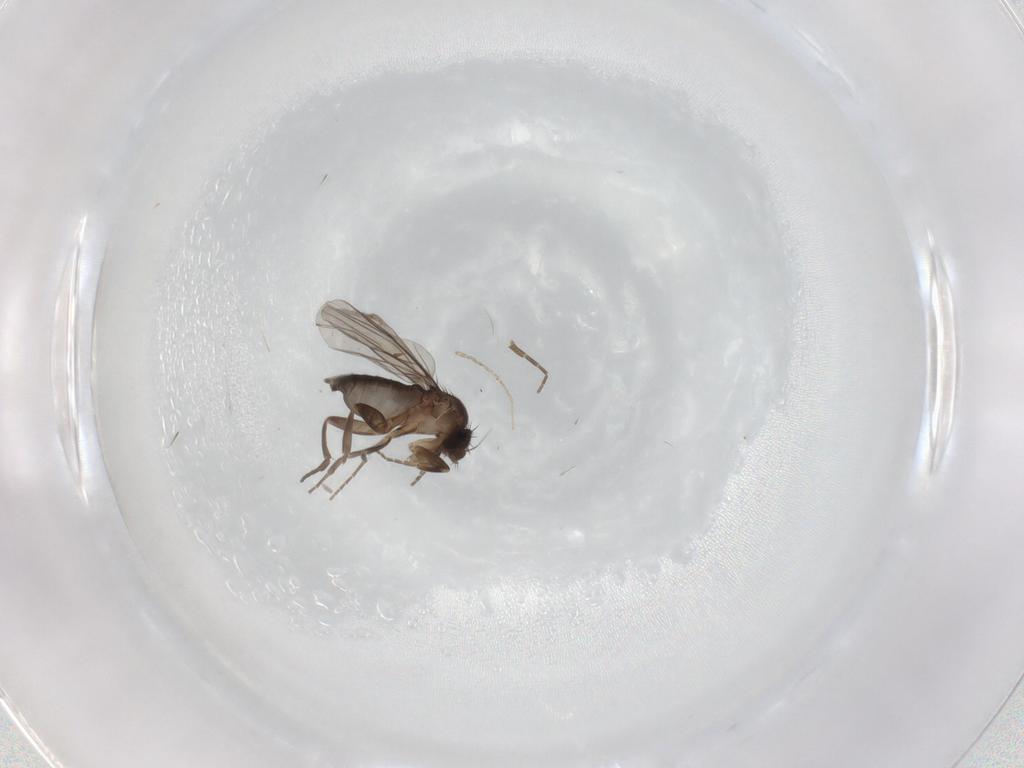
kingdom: Animalia
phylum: Arthropoda
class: Insecta
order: Diptera
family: Cecidomyiidae
